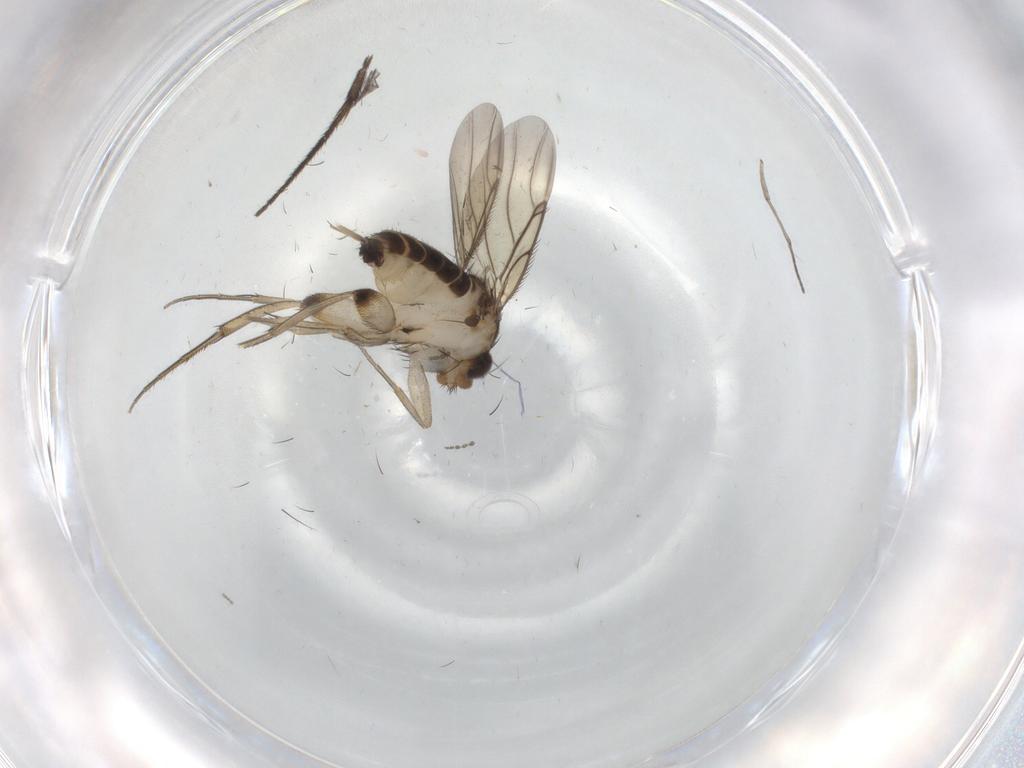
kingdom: Animalia
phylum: Arthropoda
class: Insecta
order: Diptera
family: Phoridae
